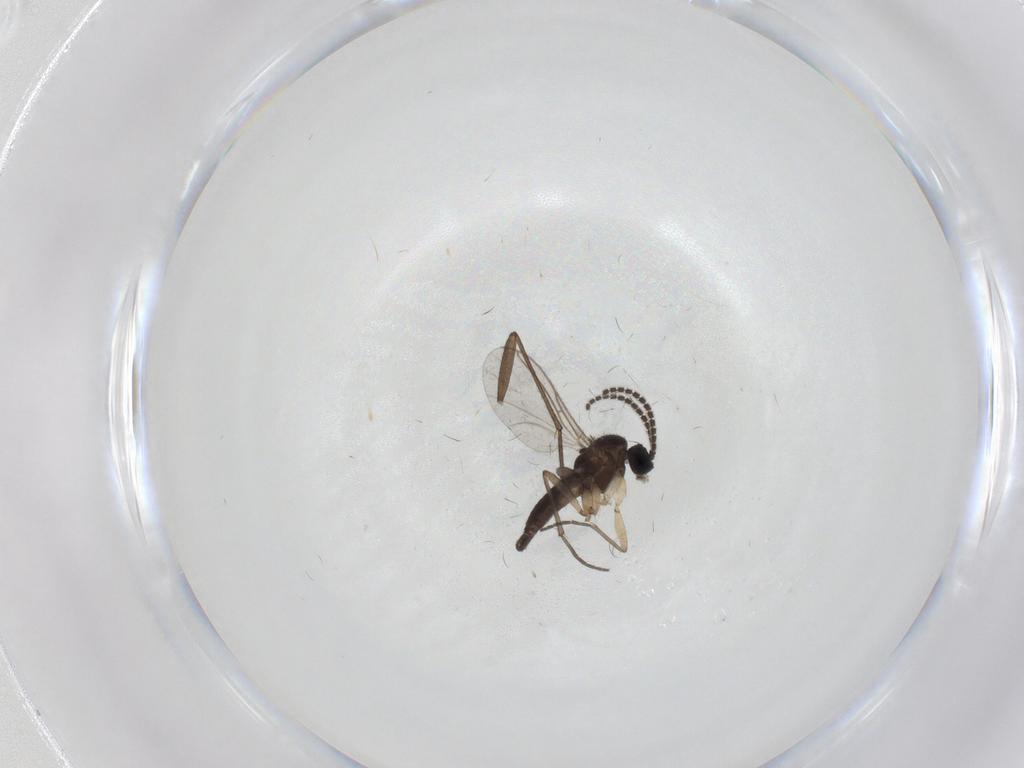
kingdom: Animalia
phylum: Arthropoda
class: Insecta
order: Diptera
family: Sciaridae
